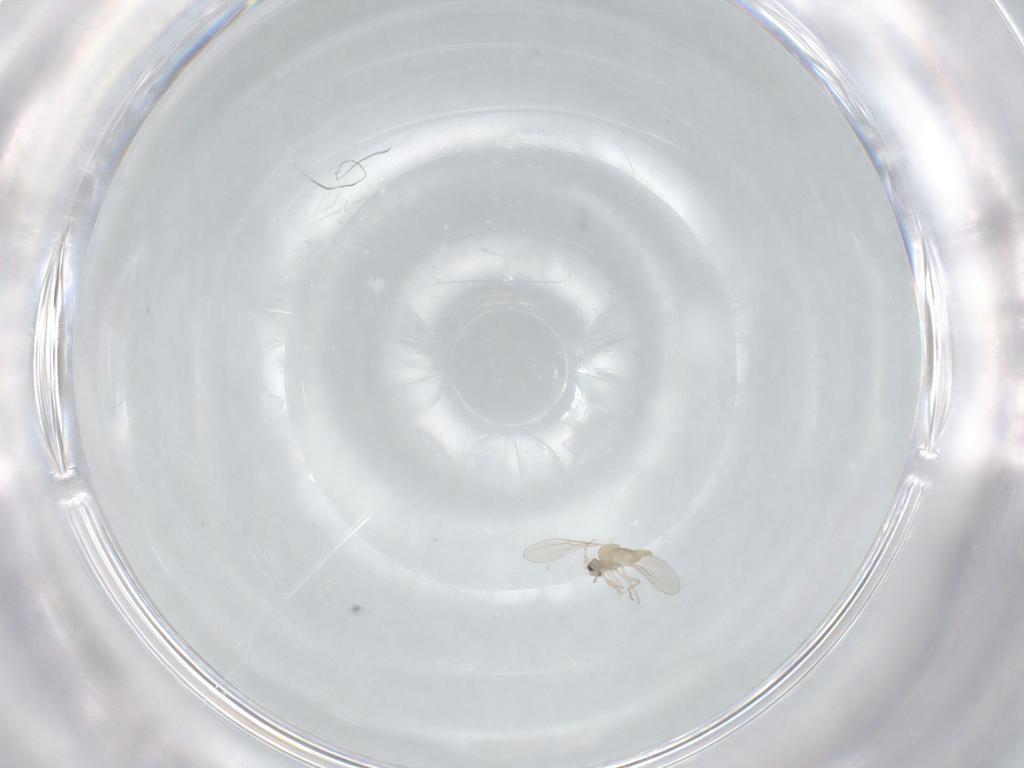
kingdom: Animalia
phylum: Arthropoda
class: Insecta
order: Diptera
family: Cecidomyiidae
